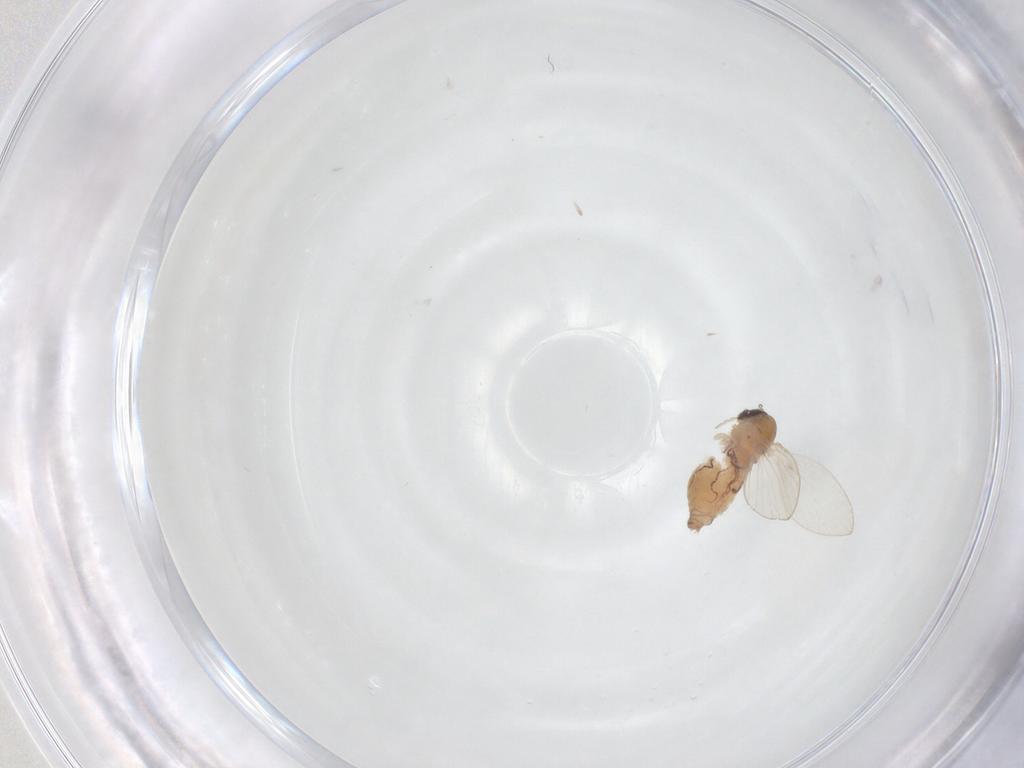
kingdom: Animalia
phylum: Arthropoda
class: Insecta
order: Diptera
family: Psychodidae
